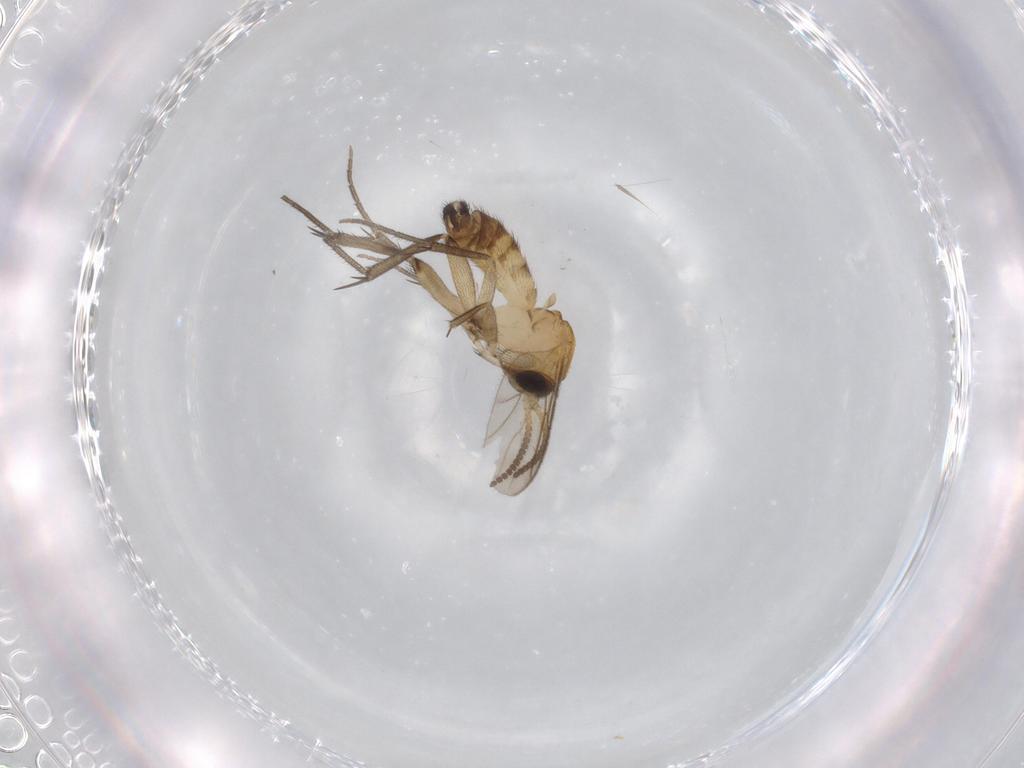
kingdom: Animalia
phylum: Arthropoda
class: Insecta
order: Diptera
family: Mycetophilidae
